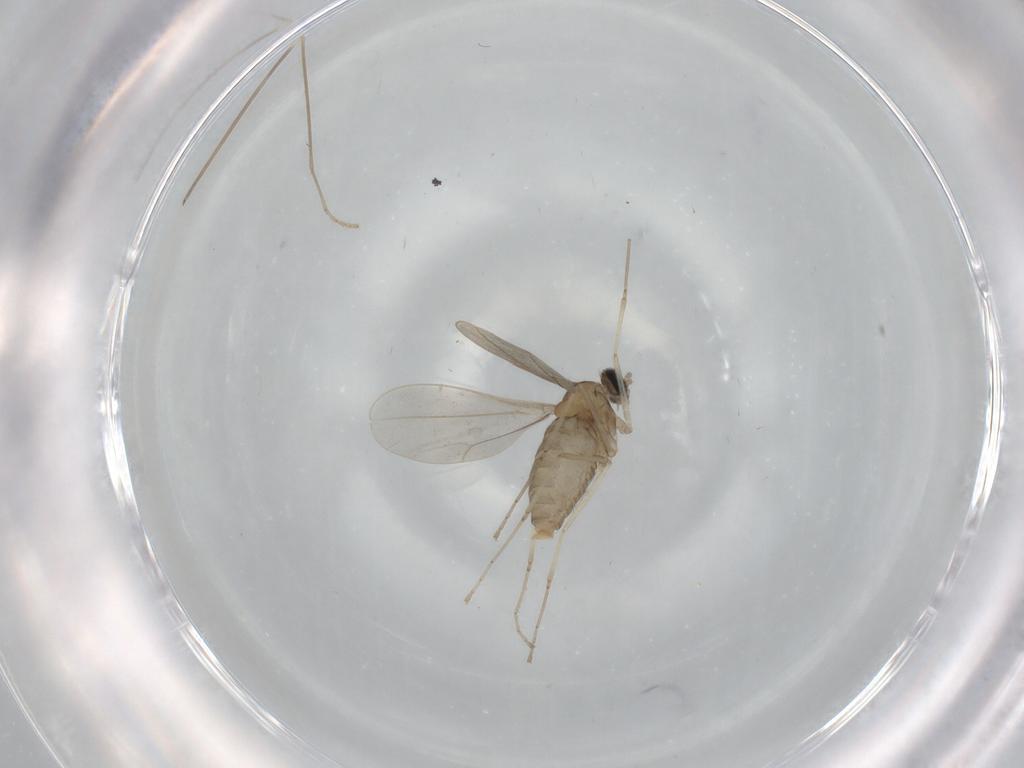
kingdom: Animalia
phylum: Arthropoda
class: Insecta
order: Diptera
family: Cecidomyiidae
